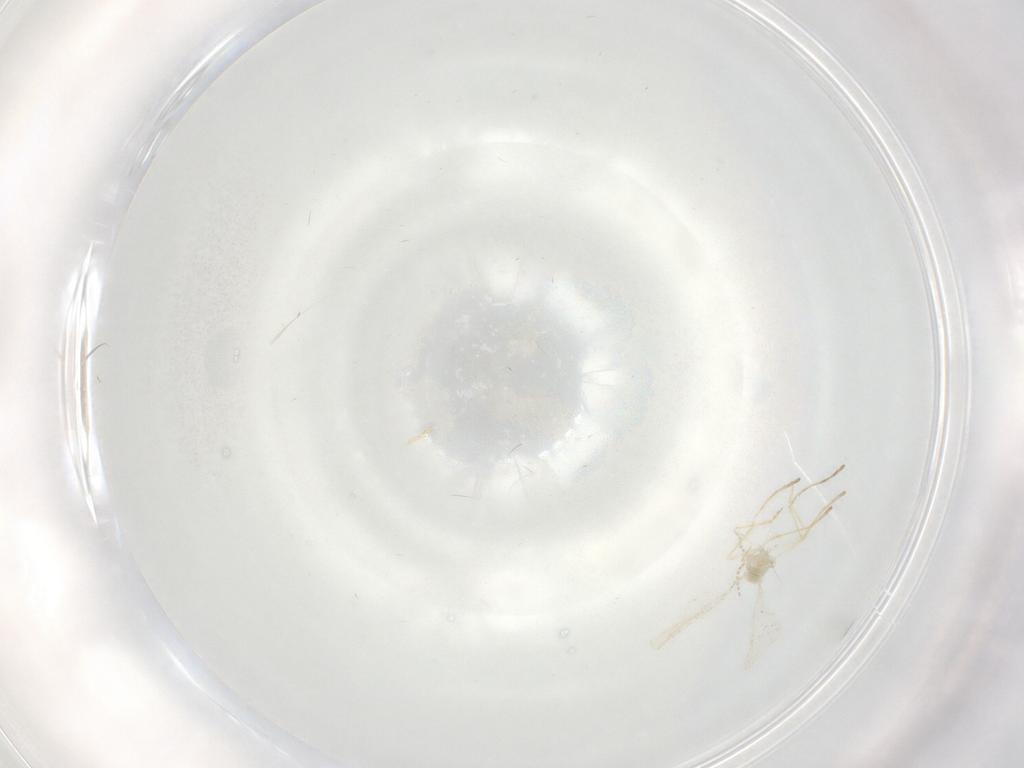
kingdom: Animalia
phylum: Arthropoda
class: Insecta
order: Diptera
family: Cecidomyiidae
